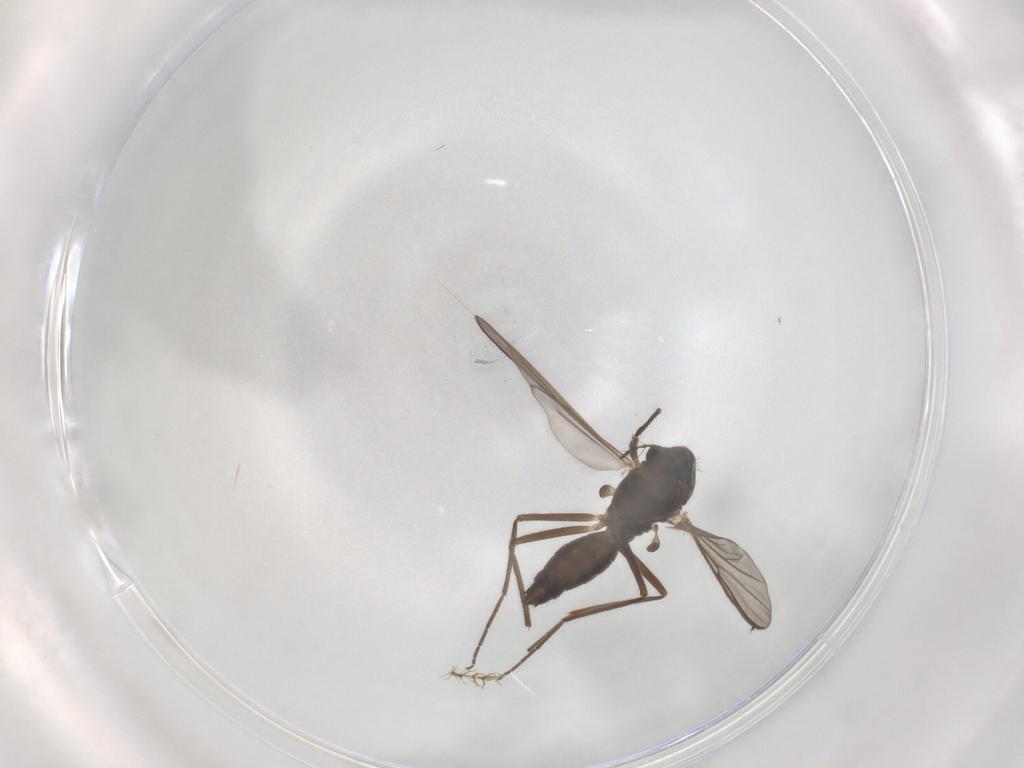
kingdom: Animalia
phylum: Arthropoda
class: Insecta
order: Diptera
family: Chironomidae
